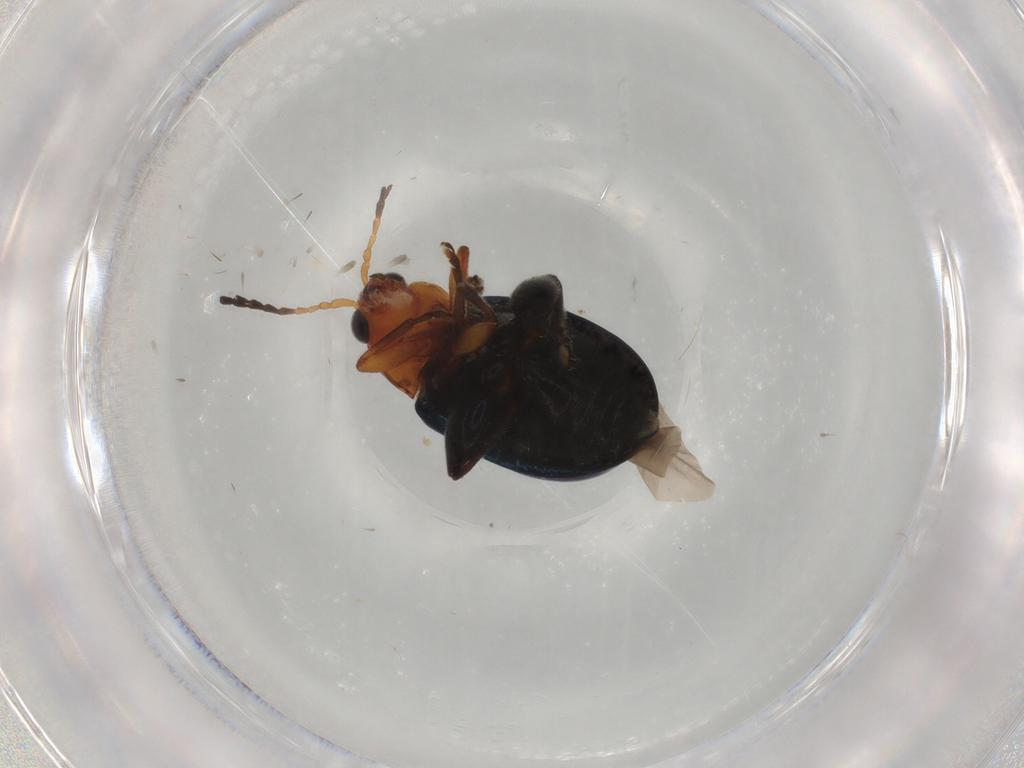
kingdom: Animalia
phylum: Arthropoda
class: Insecta
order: Coleoptera
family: Chrysomelidae
